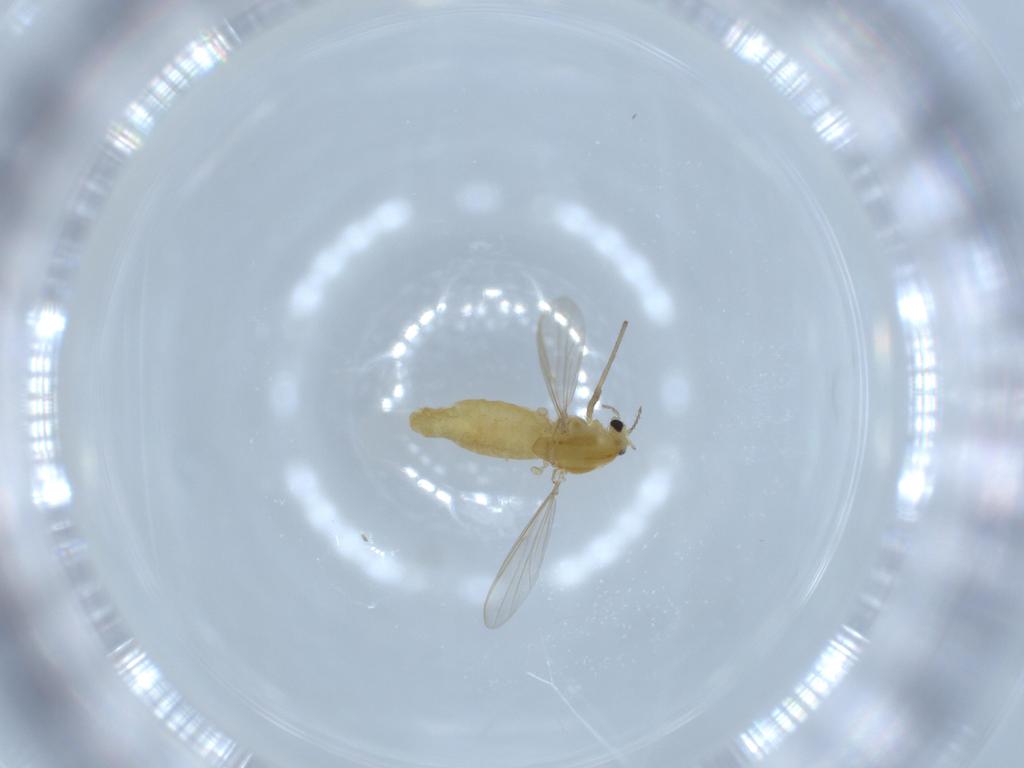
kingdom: Animalia
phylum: Arthropoda
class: Insecta
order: Diptera
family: Chironomidae
